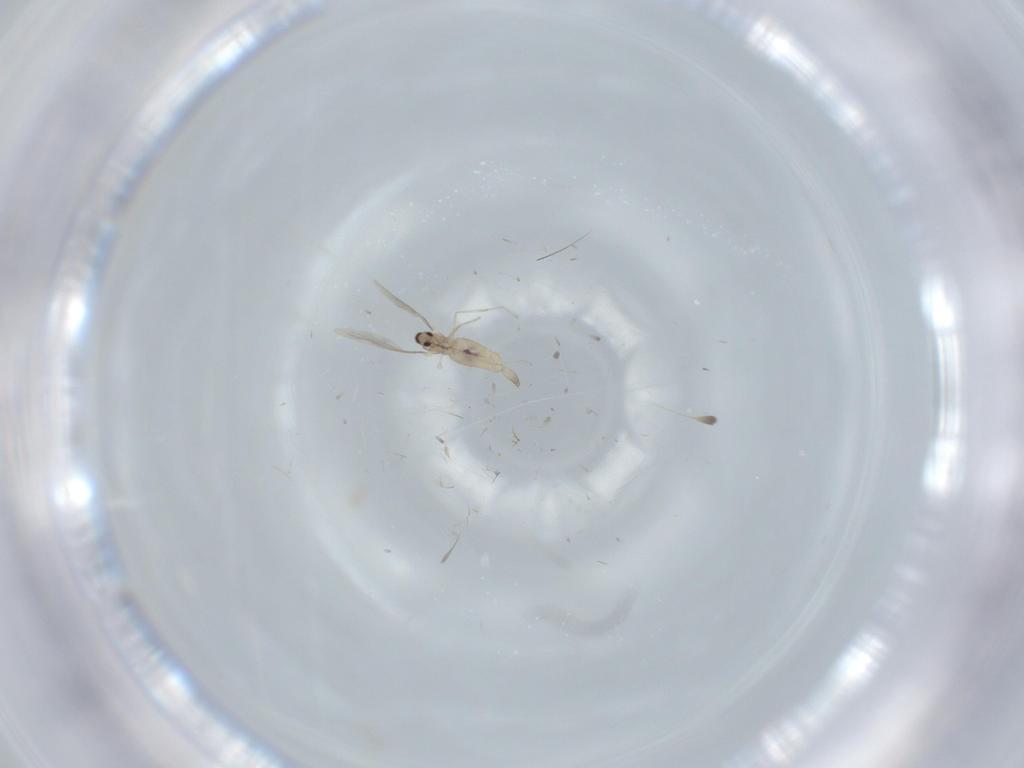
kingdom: Animalia
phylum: Arthropoda
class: Insecta
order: Diptera
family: Cecidomyiidae
